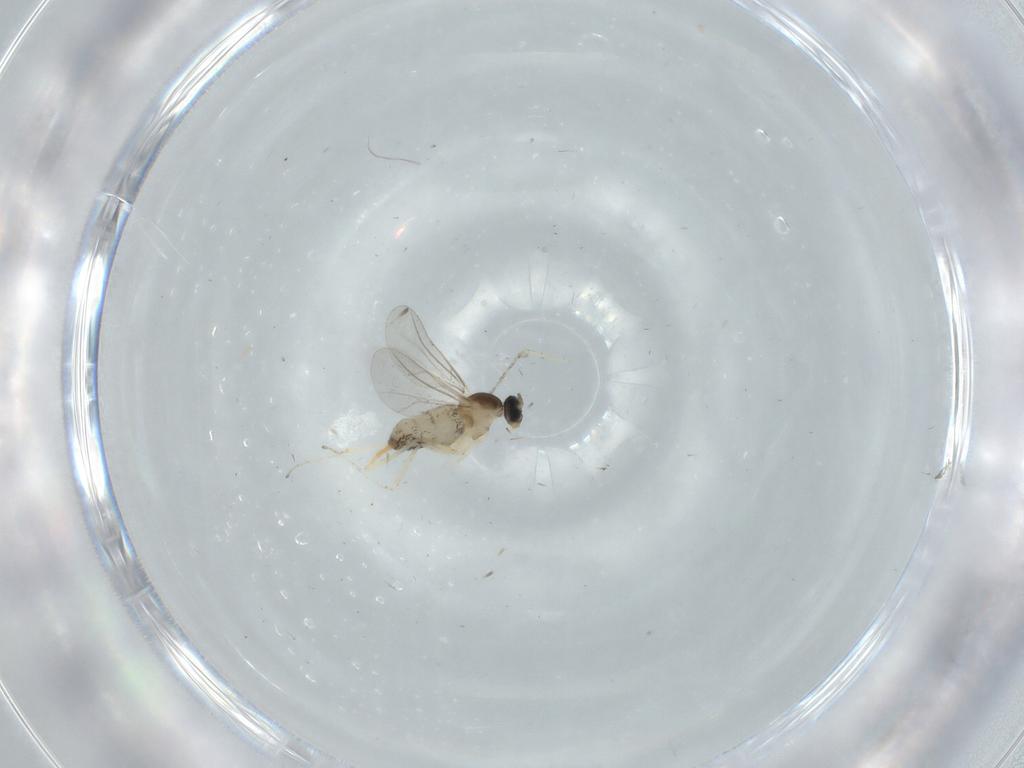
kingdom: Animalia
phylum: Arthropoda
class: Insecta
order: Diptera
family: Cecidomyiidae
